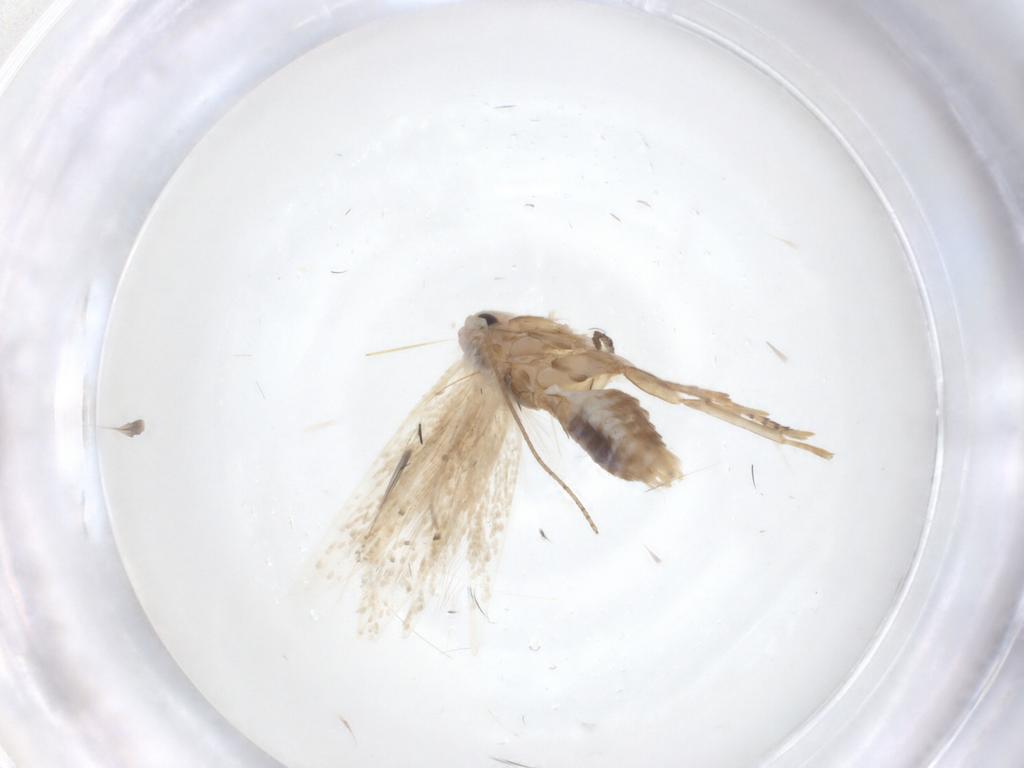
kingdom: Animalia
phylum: Arthropoda
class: Insecta
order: Lepidoptera
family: Bucculatricidae
